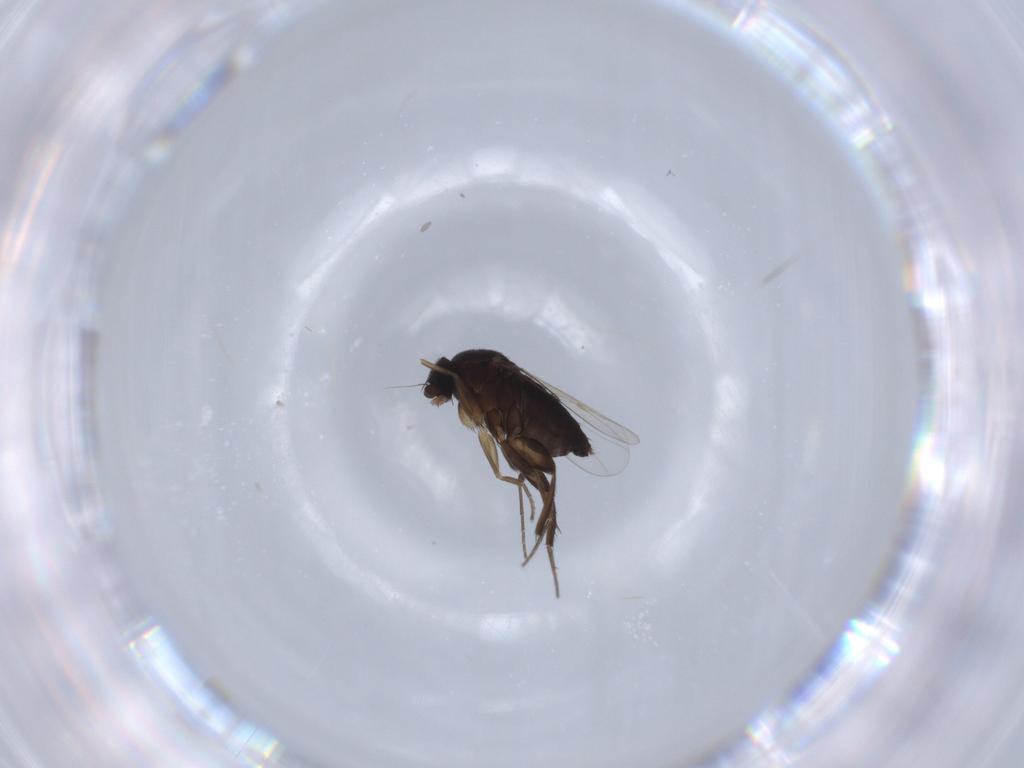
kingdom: Animalia
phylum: Arthropoda
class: Insecta
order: Diptera
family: Phoridae
